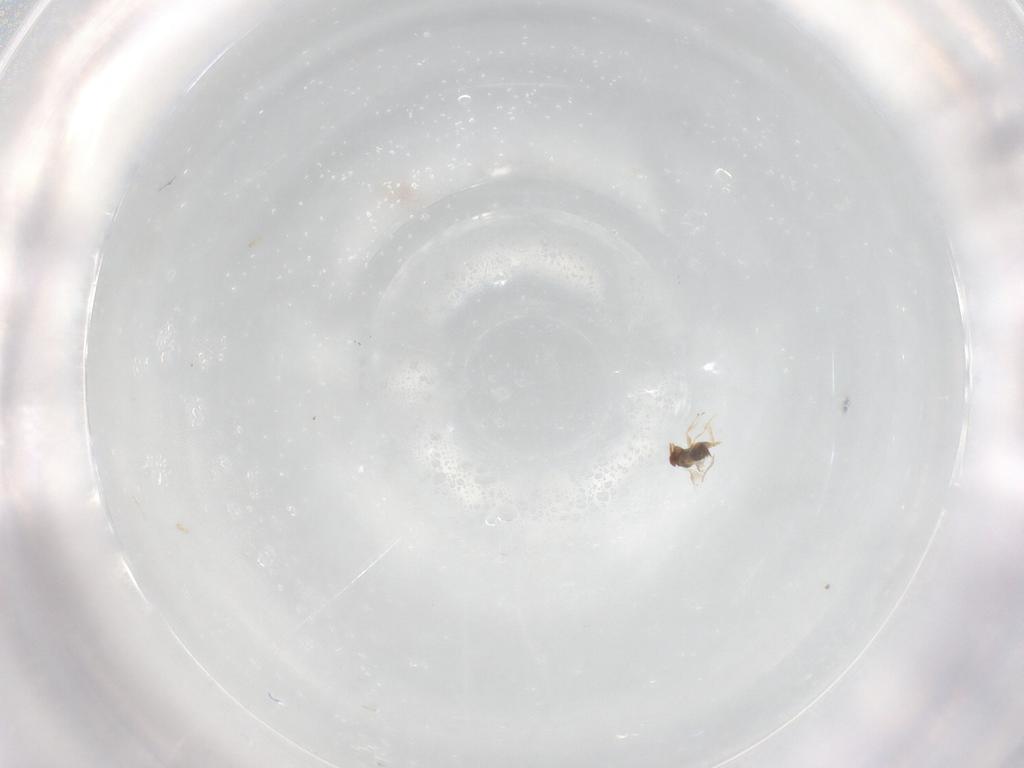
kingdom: Animalia
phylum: Arthropoda
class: Insecta
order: Hymenoptera
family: Trichogrammatidae
